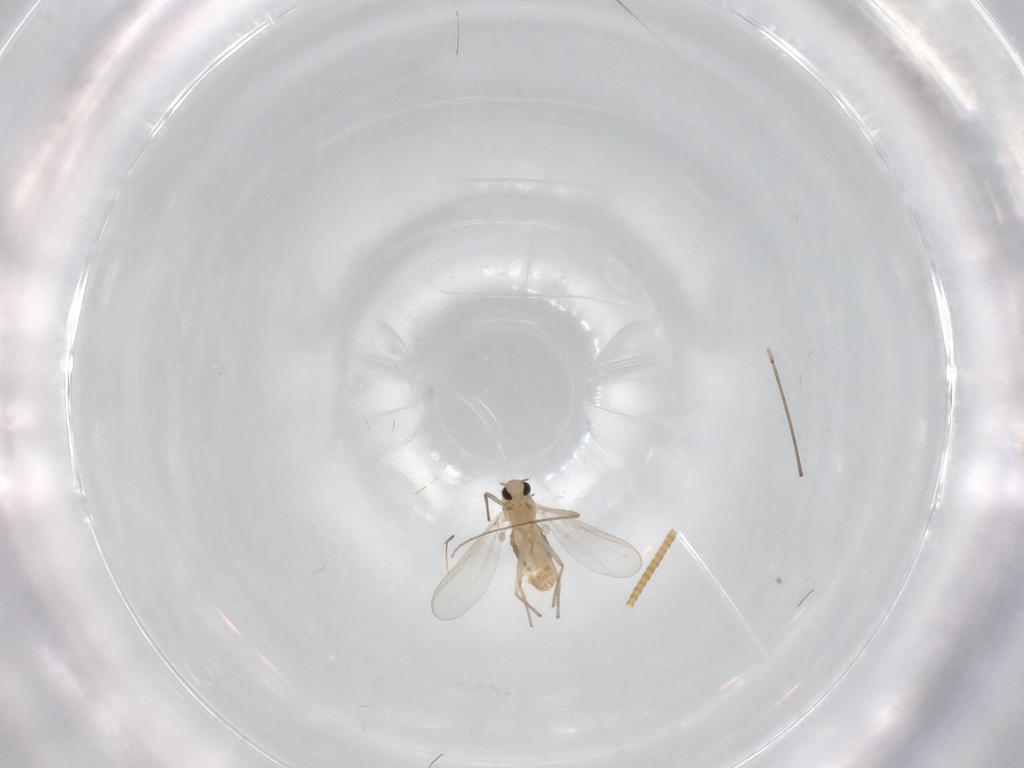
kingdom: Animalia
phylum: Arthropoda
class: Insecta
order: Diptera
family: Chironomidae
